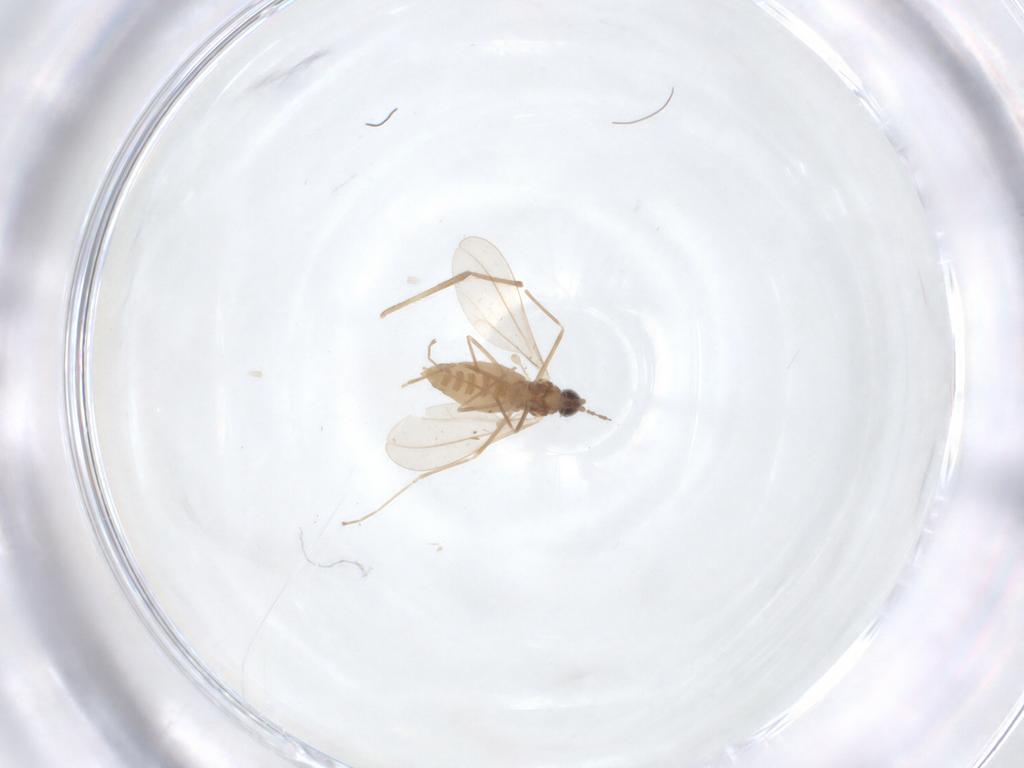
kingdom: Animalia
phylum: Arthropoda
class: Insecta
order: Diptera
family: Cecidomyiidae
